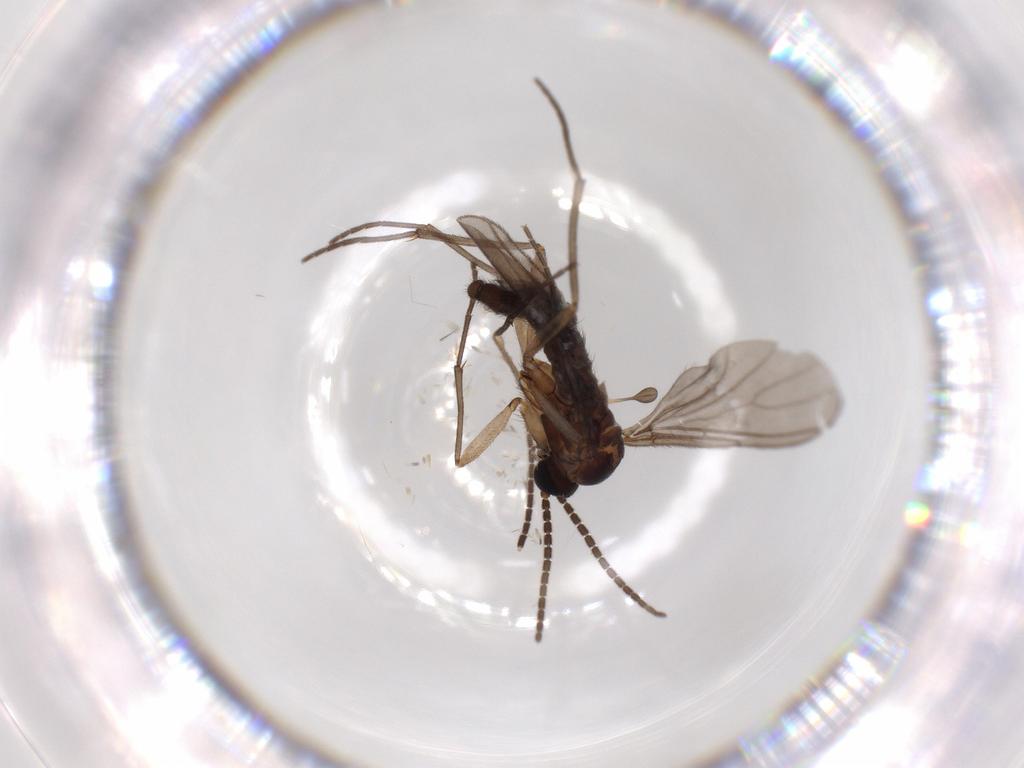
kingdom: Animalia
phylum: Arthropoda
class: Insecta
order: Diptera
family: Sciaridae
